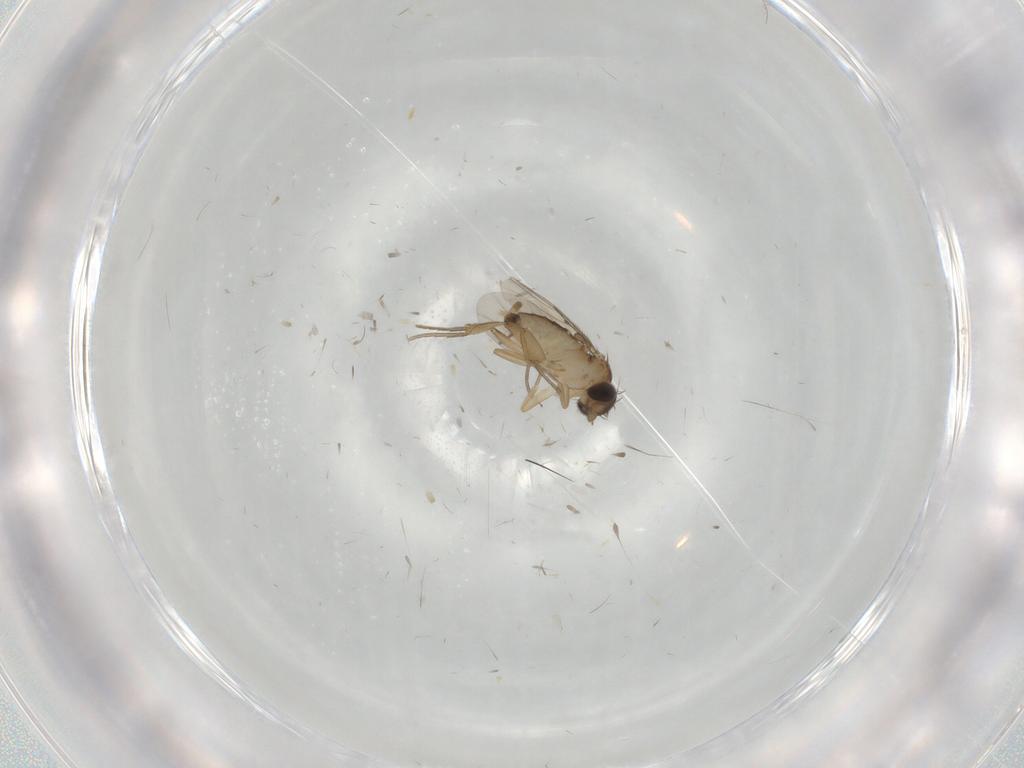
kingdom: Animalia
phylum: Arthropoda
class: Insecta
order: Diptera
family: Phoridae
